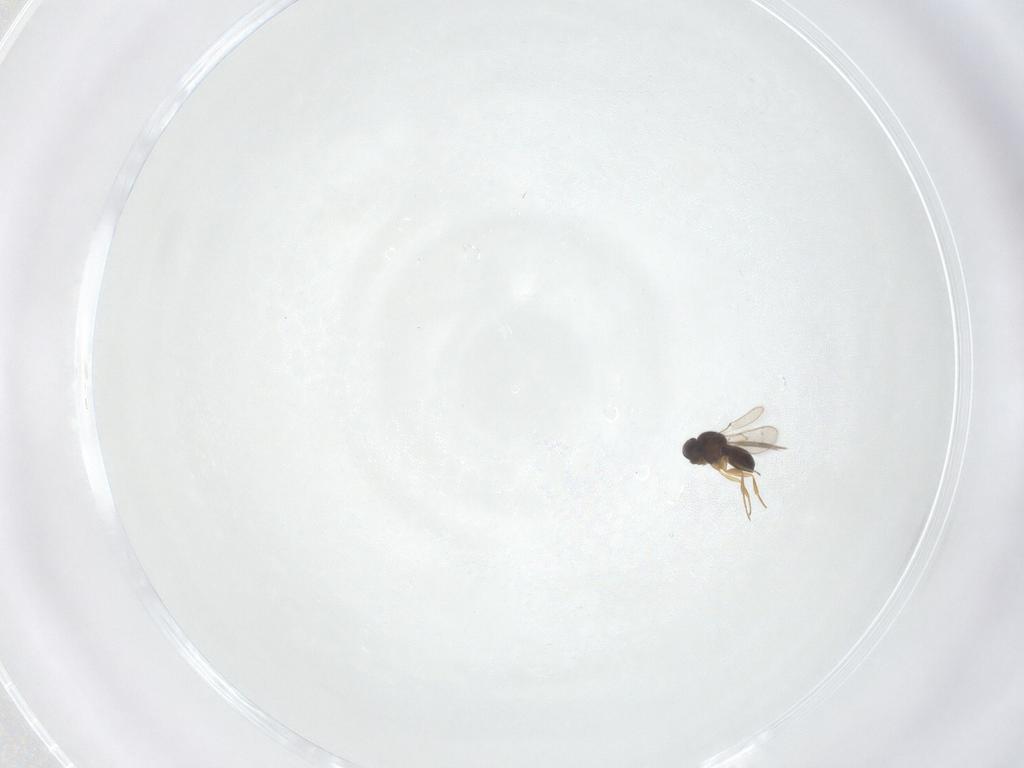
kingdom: Animalia
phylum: Arthropoda
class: Insecta
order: Hymenoptera
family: Scelionidae
